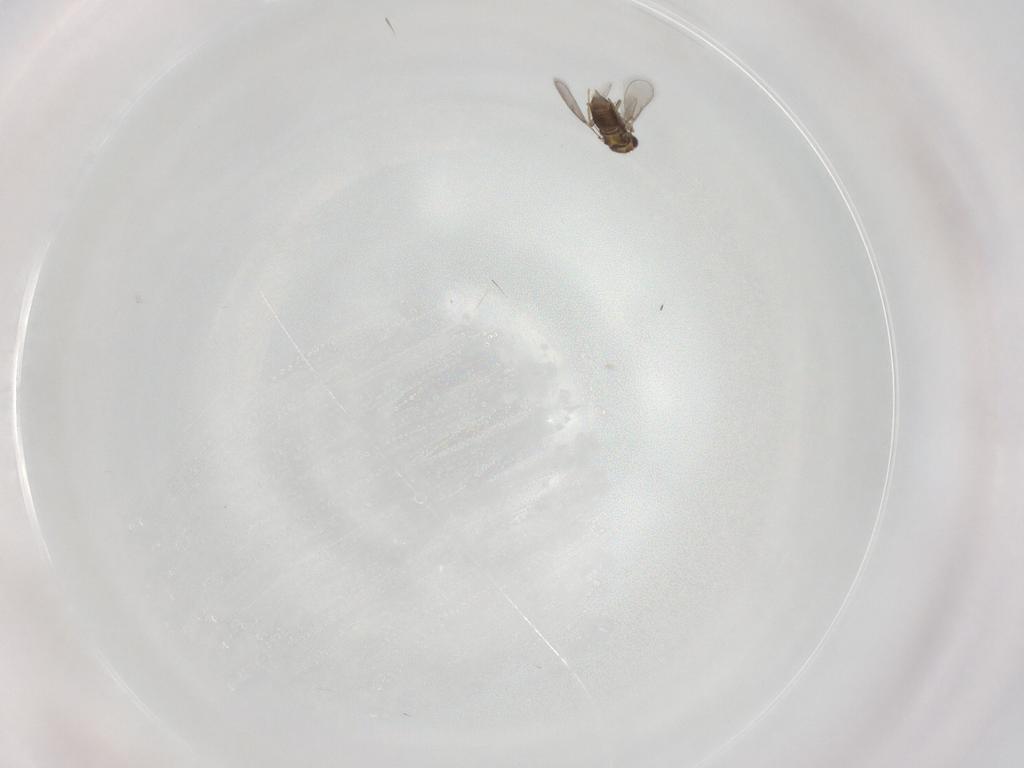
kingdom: Animalia
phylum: Arthropoda
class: Insecta
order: Hymenoptera
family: Aphelinidae
